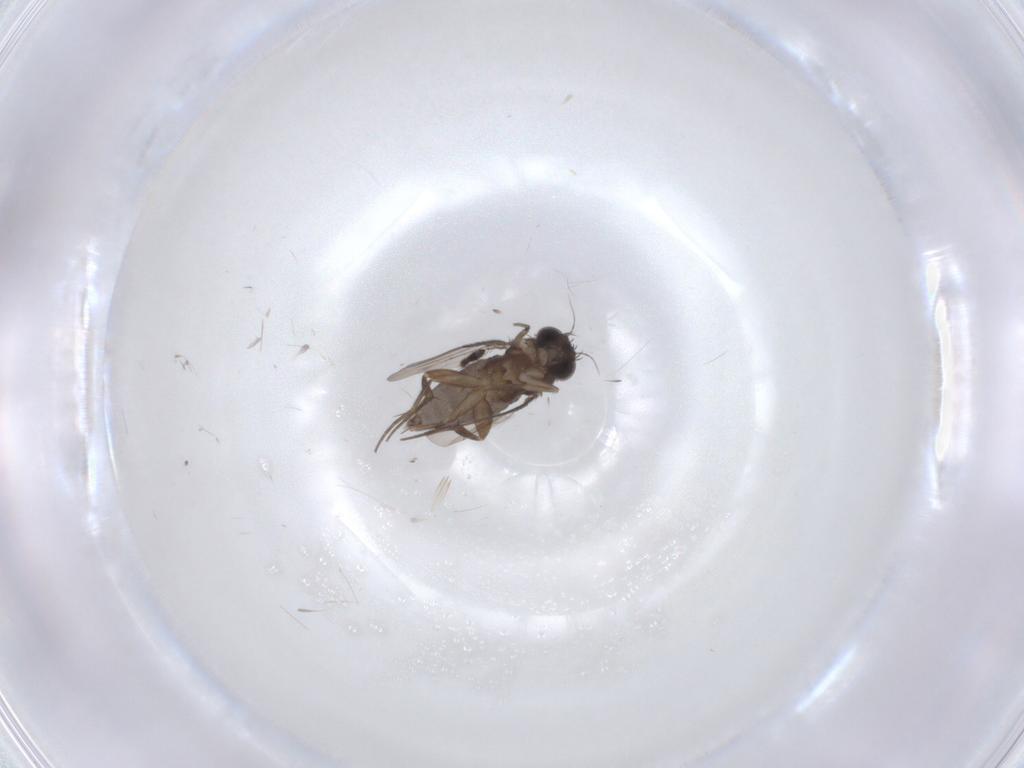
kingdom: Animalia
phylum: Arthropoda
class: Insecta
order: Diptera
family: Phoridae
